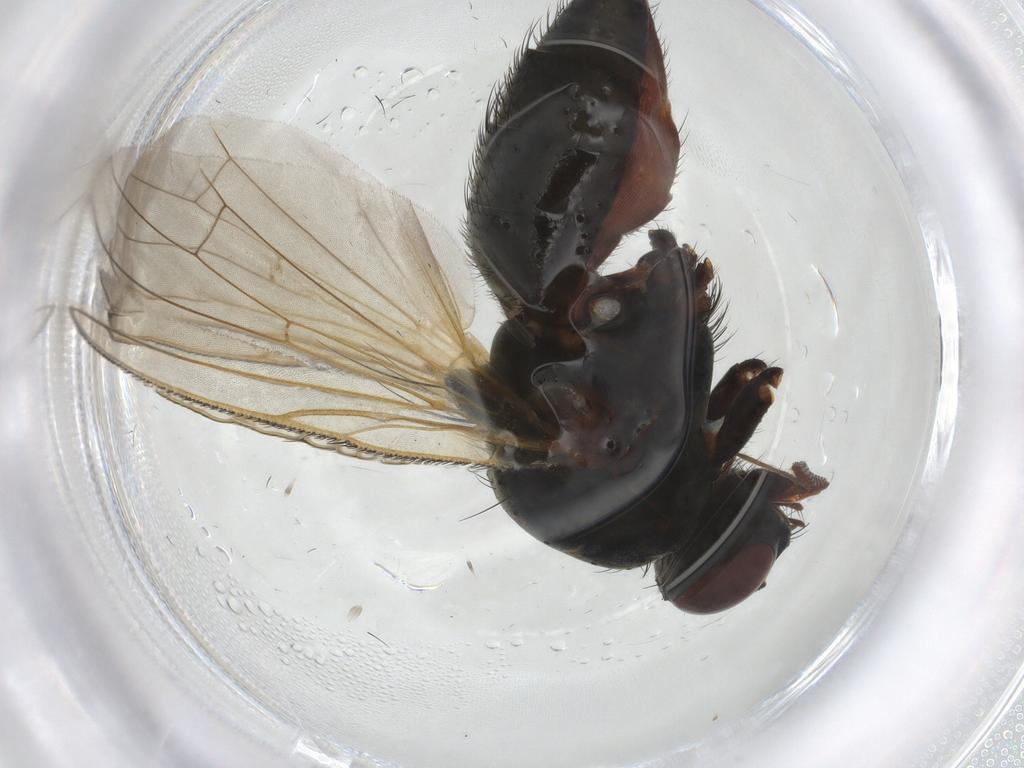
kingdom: Animalia
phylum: Arthropoda
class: Insecta
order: Diptera
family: Anthomyiidae
